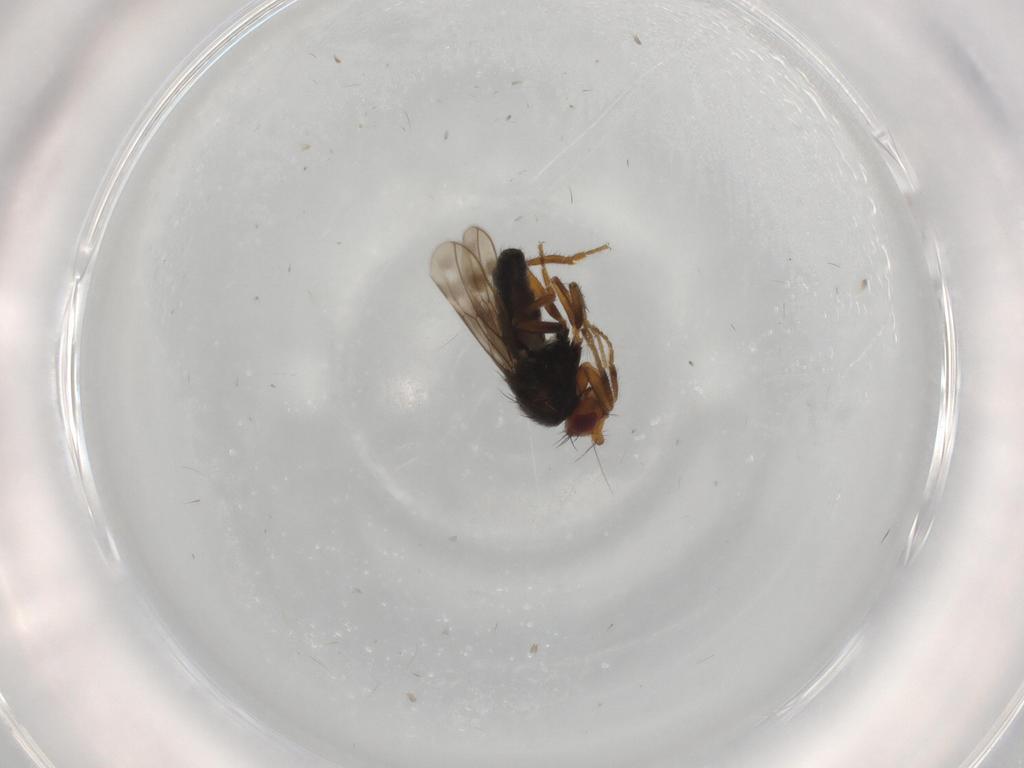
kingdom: Animalia
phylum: Arthropoda
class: Insecta
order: Diptera
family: Sphaeroceridae
